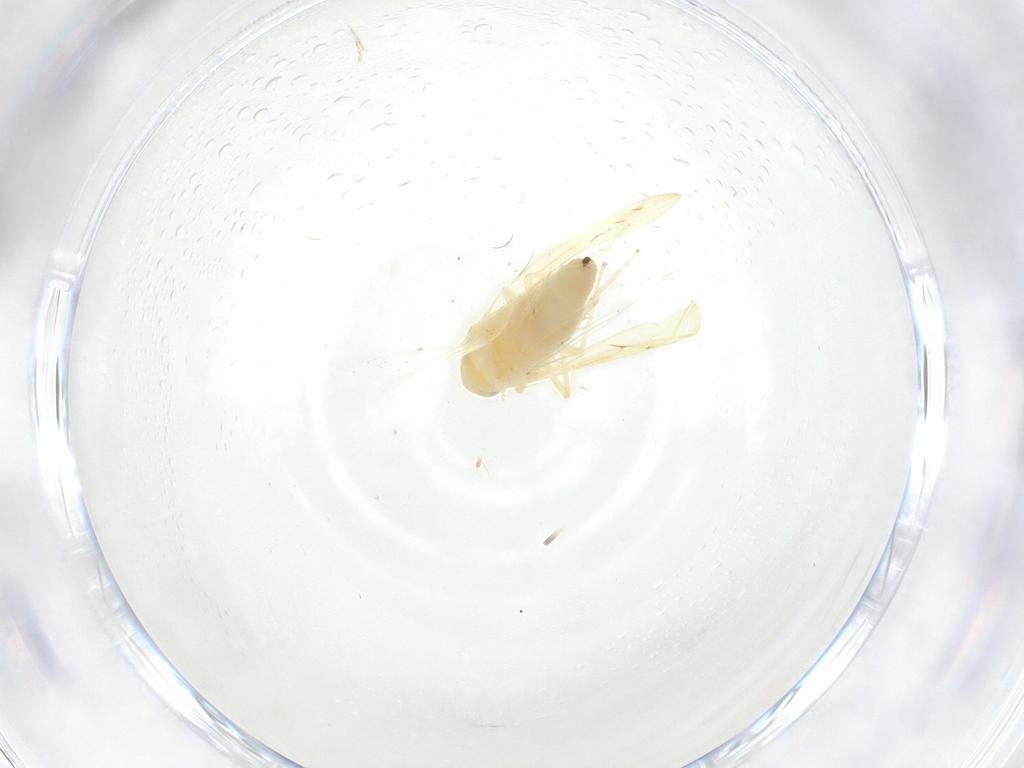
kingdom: Animalia
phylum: Arthropoda
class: Insecta
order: Hemiptera
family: Cicadellidae
